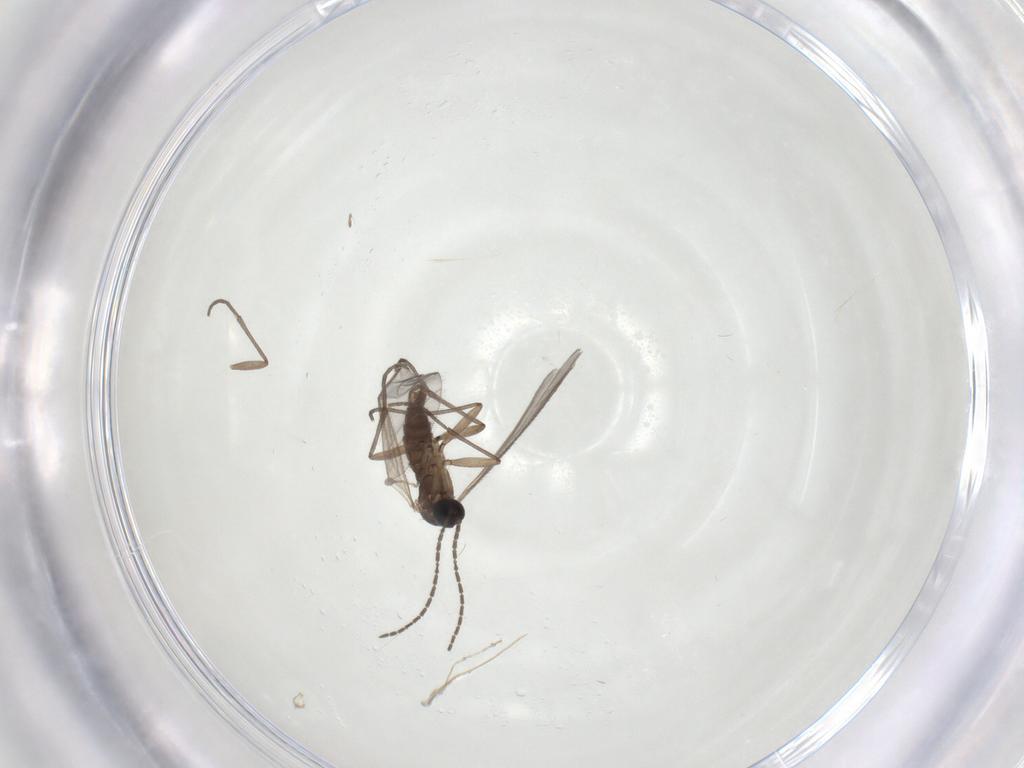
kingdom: Animalia
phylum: Arthropoda
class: Insecta
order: Diptera
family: Sciaridae
